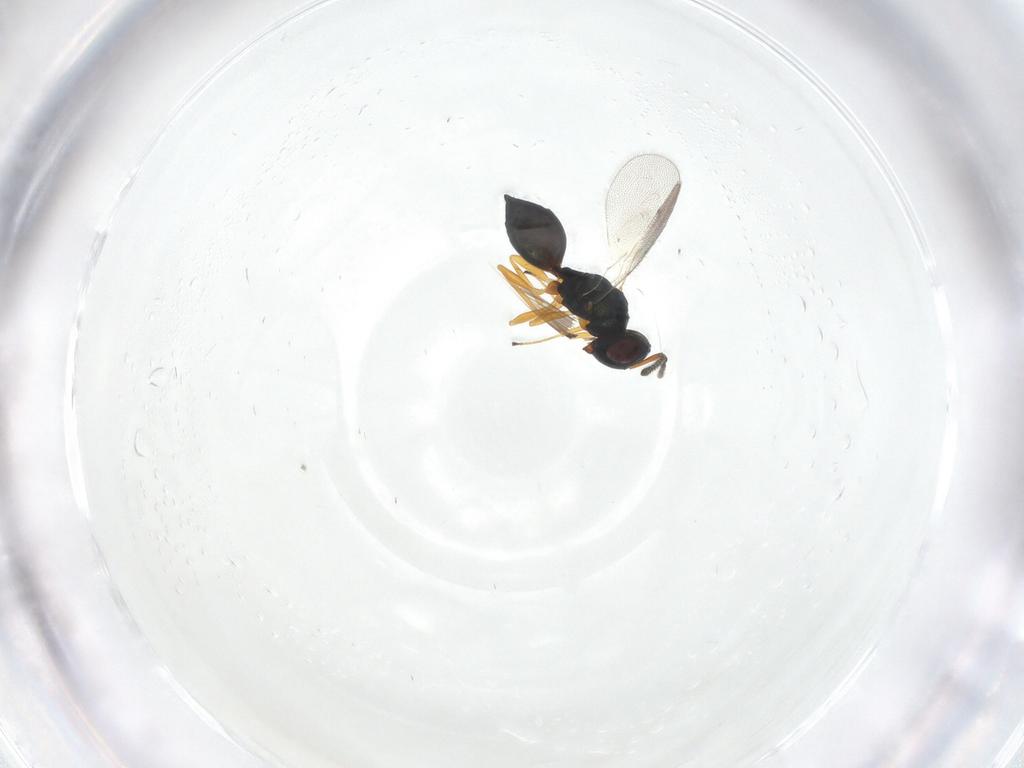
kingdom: Animalia
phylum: Arthropoda
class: Insecta
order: Hymenoptera
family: Pteromalidae
